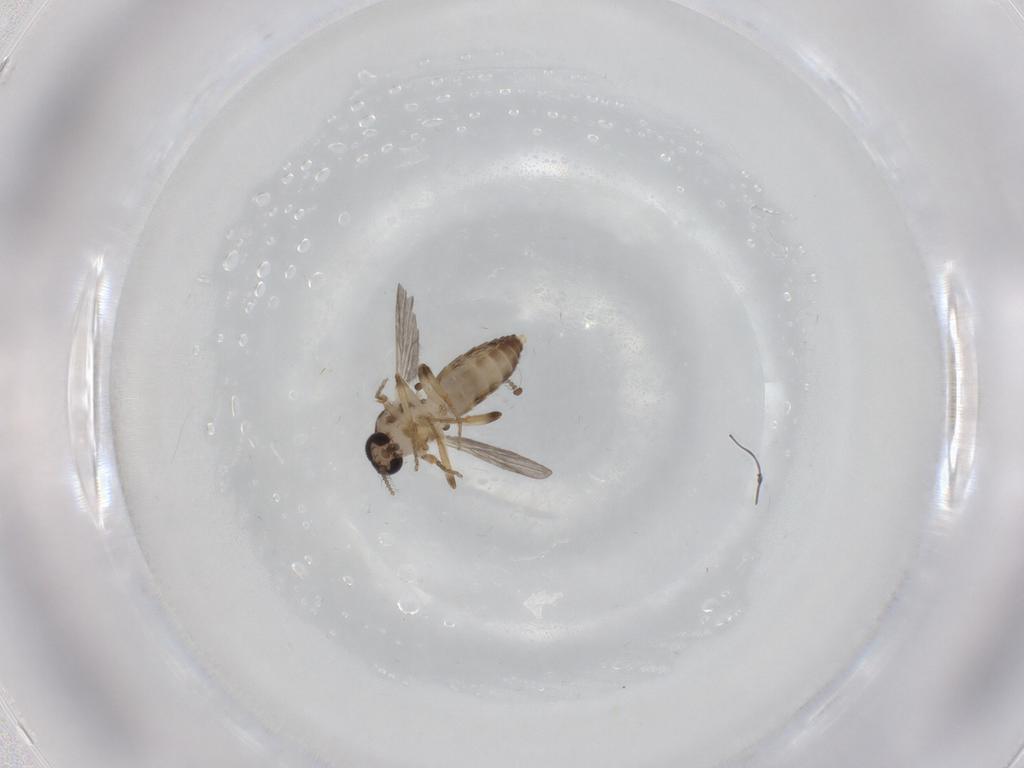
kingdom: Animalia
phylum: Arthropoda
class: Insecta
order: Diptera
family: Ceratopogonidae
